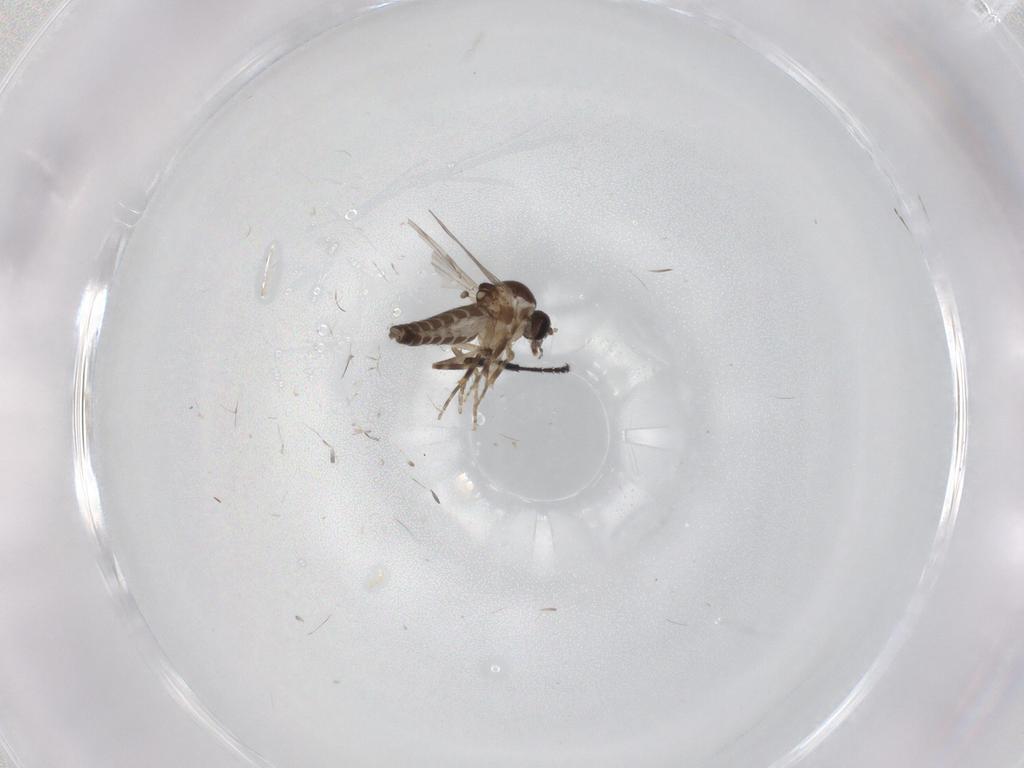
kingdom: Animalia
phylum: Arthropoda
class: Insecta
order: Diptera
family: Ceratopogonidae
